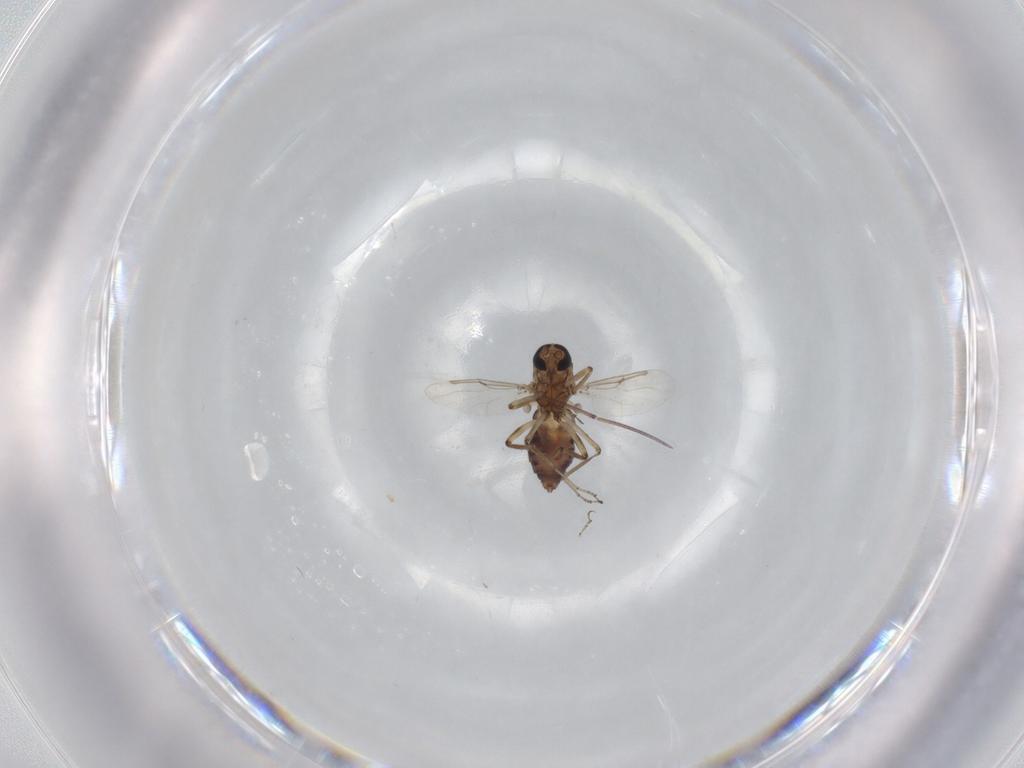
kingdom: Animalia
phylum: Arthropoda
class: Insecta
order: Diptera
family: Ceratopogonidae
